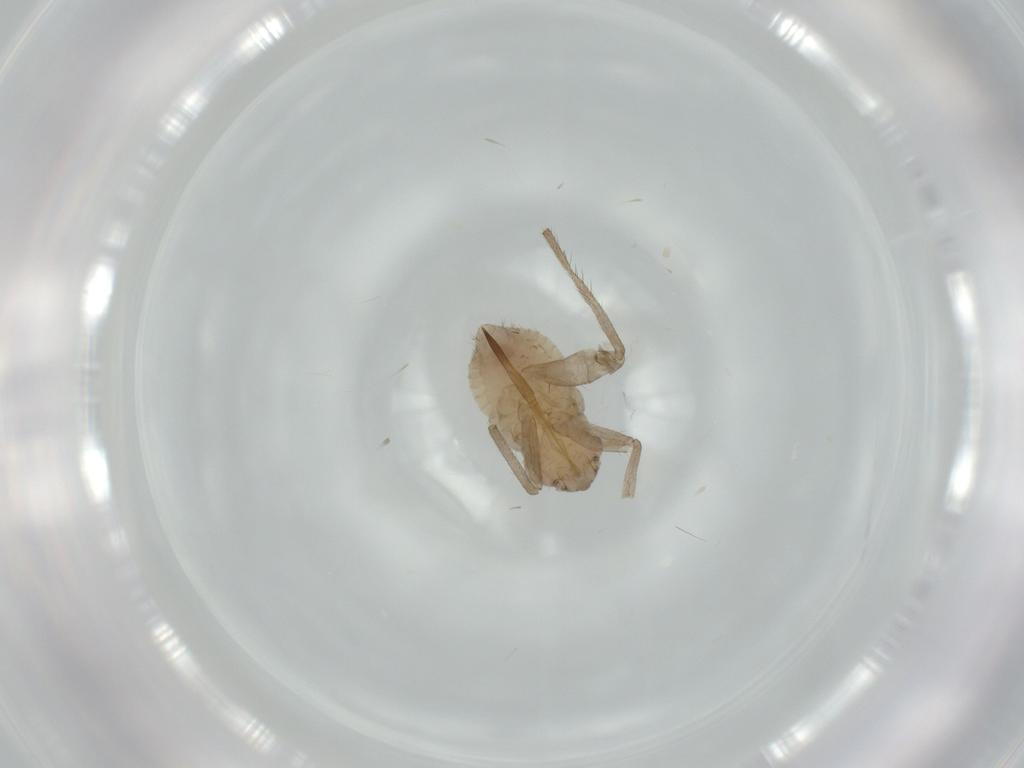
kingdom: Animalia
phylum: Arthropoda
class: Insecta
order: Hemiptera
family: Miridae
